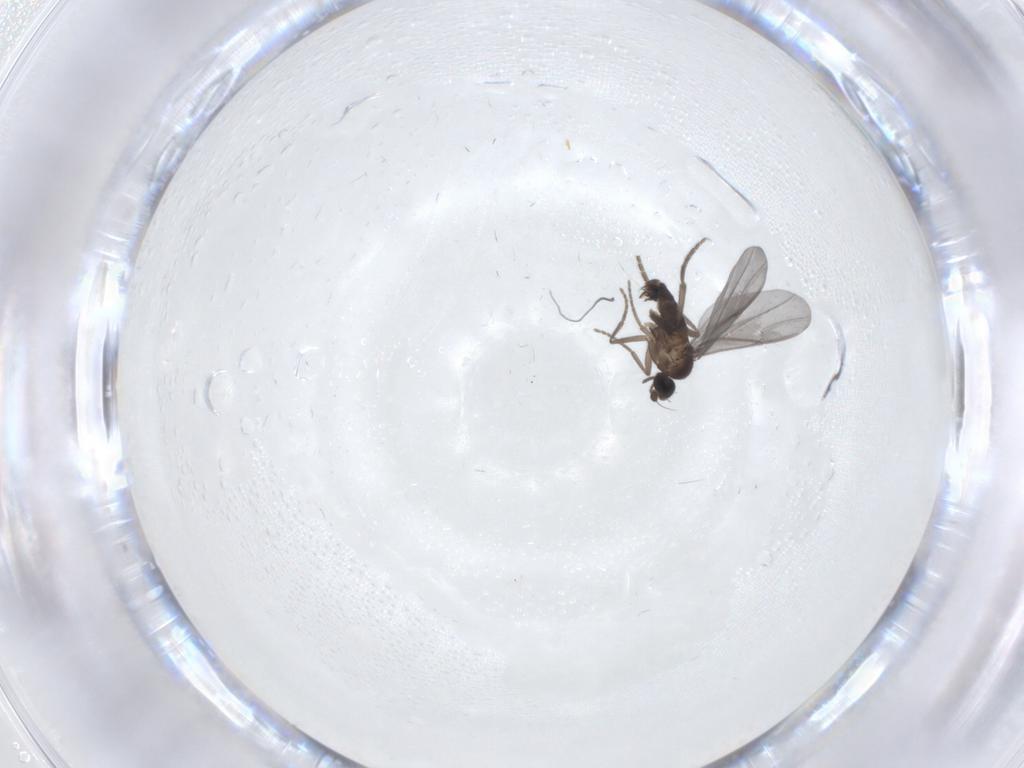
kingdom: Animalia
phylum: Arthropoda
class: Insecta
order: Diptera
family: Phoridae
